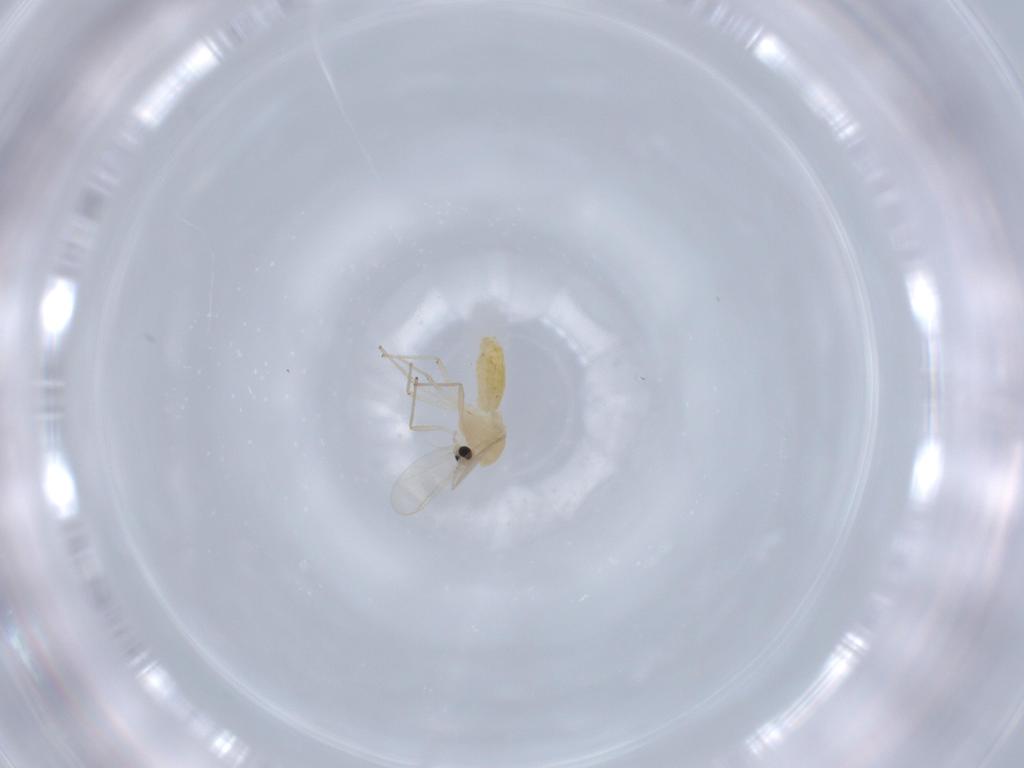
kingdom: Animalia
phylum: Arthropoda
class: Insecta
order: Diptera
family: Chironomidae
